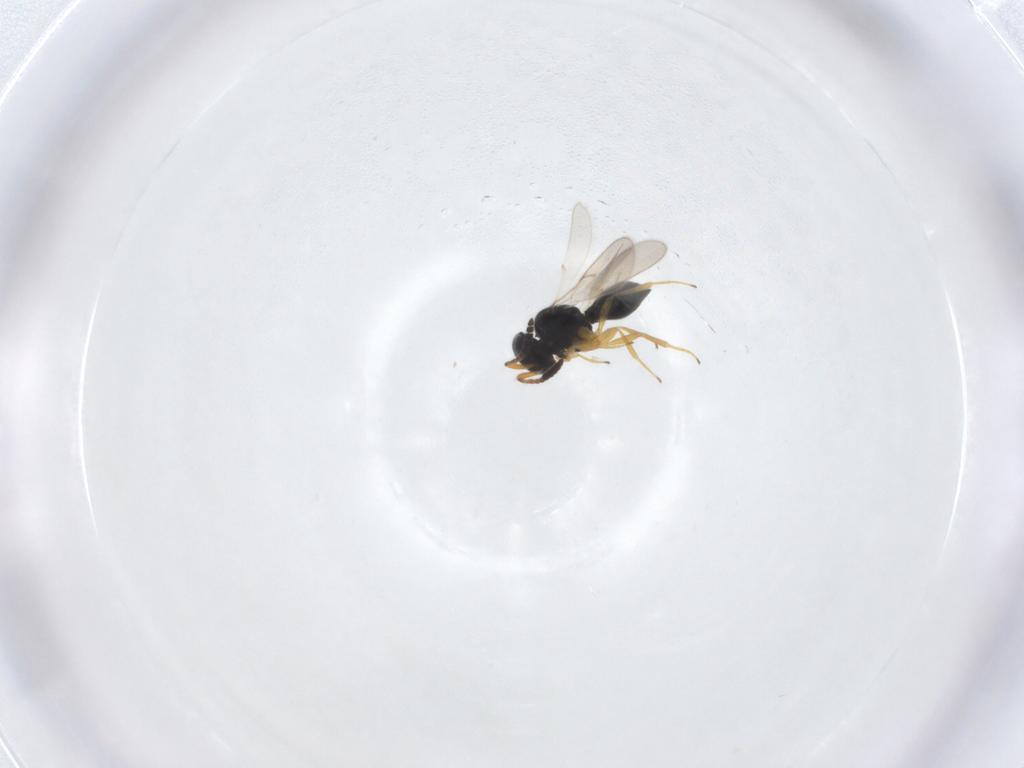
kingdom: Animalia
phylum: Arthropoda
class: Insecta
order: Hymenoptera
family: Scelionidae
